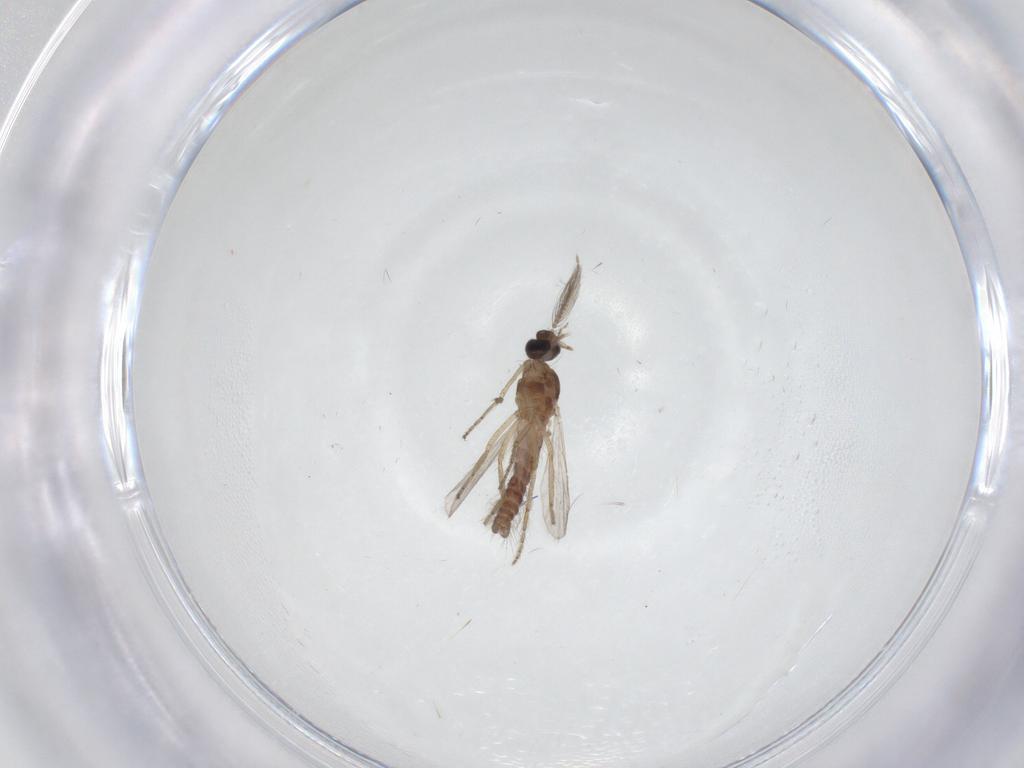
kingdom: Animalia
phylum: Arthropoda
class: Insecta
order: Diptera
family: Ceratopogonidae
